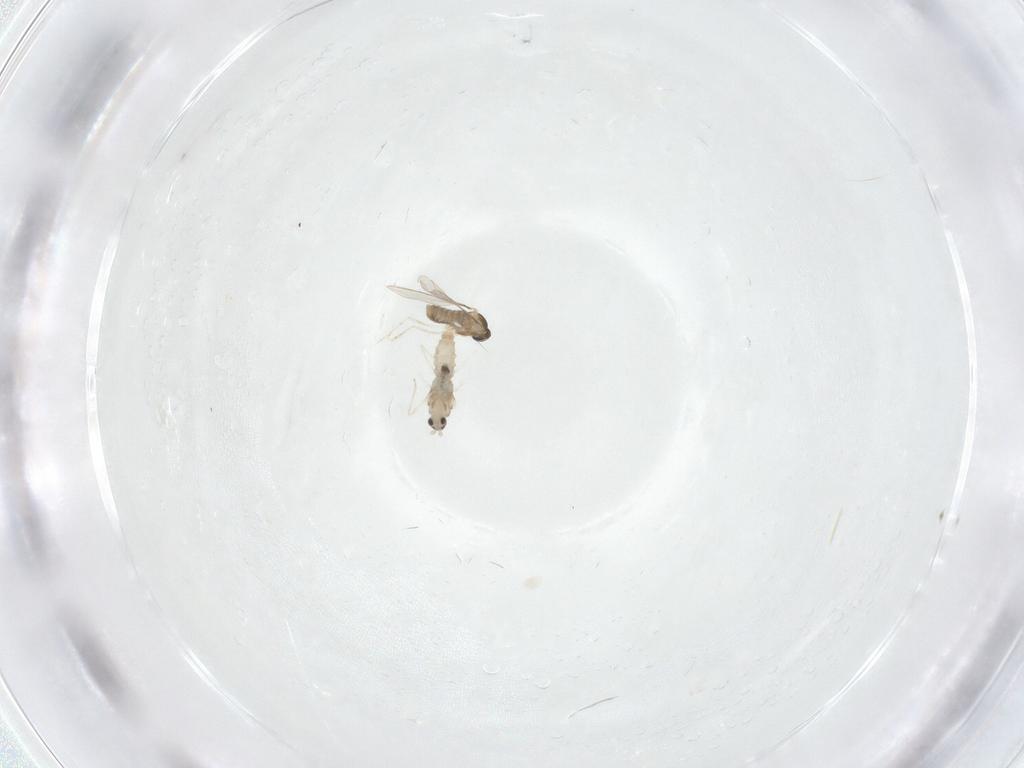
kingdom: Animalia
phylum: Arthropoda
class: Insecta
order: Diptera
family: Cecidomyiidae
